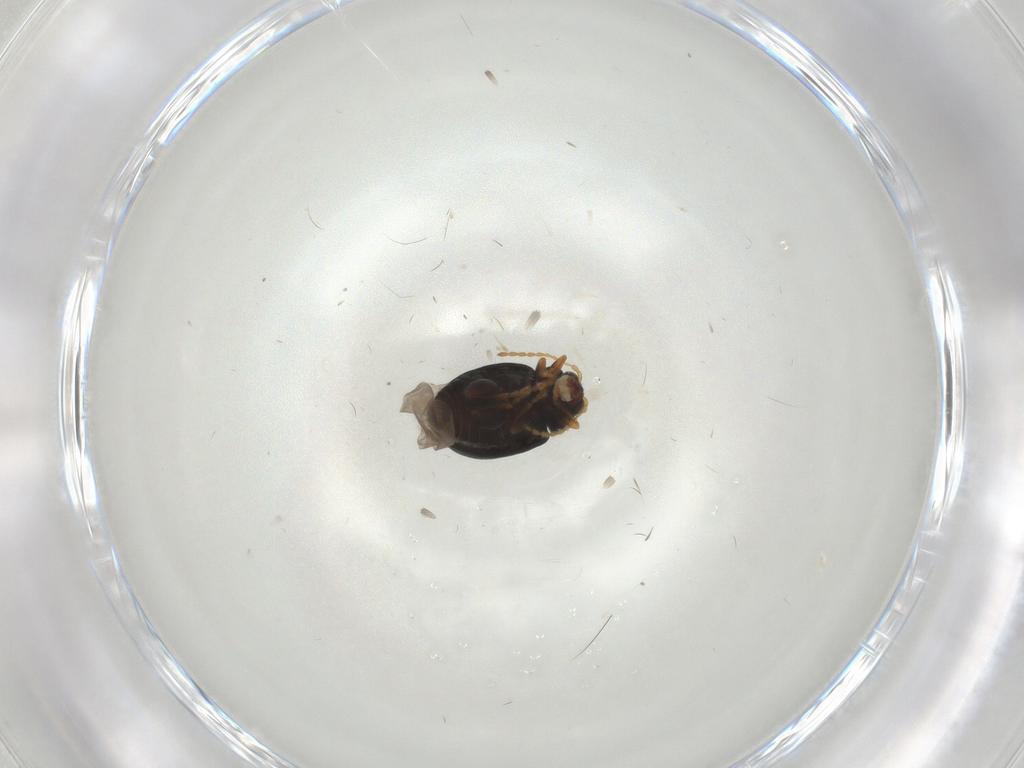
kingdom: Animalia
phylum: Arthropoda
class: Insecta
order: Coleoptera
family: Chrysomelidae
